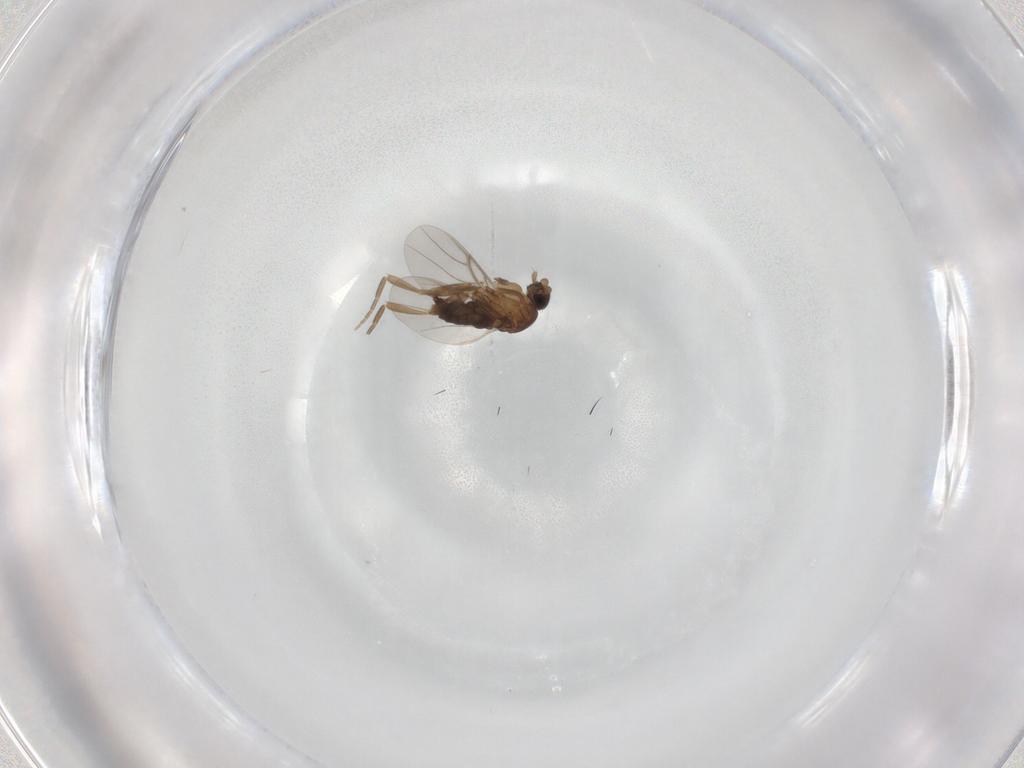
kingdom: Animalia
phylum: Arthropoda
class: Insecta
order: Diptera
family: Phoridae
